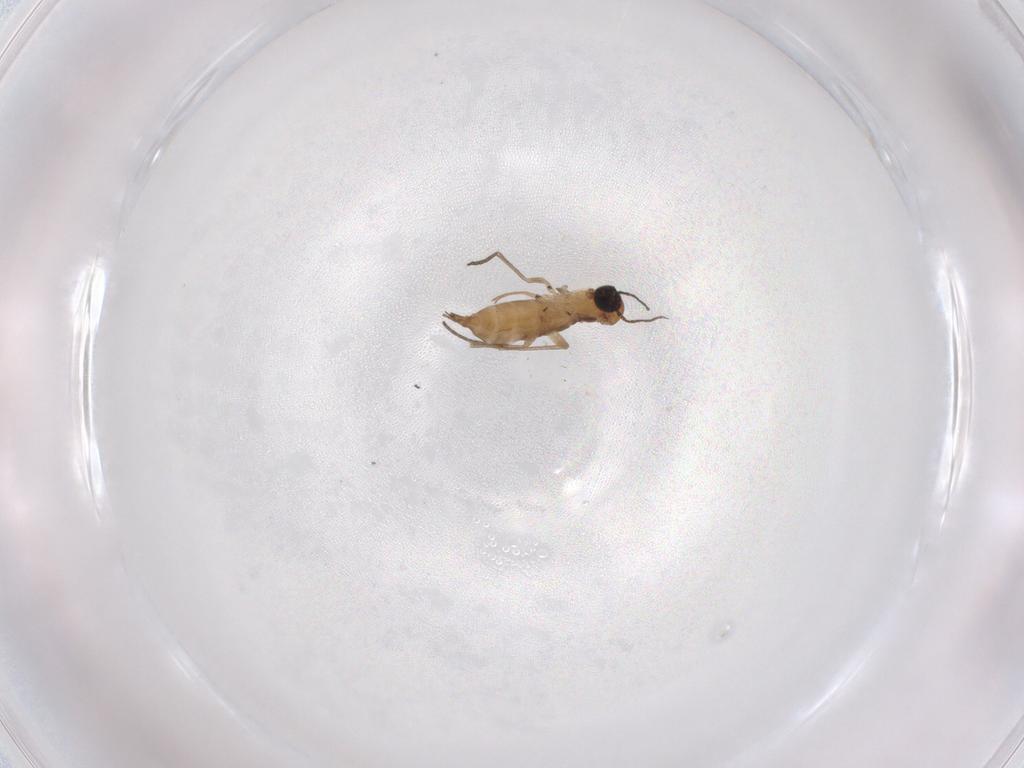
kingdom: Animalia
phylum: Arthropoda
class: Insecta
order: Diptera
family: Sciaridae
